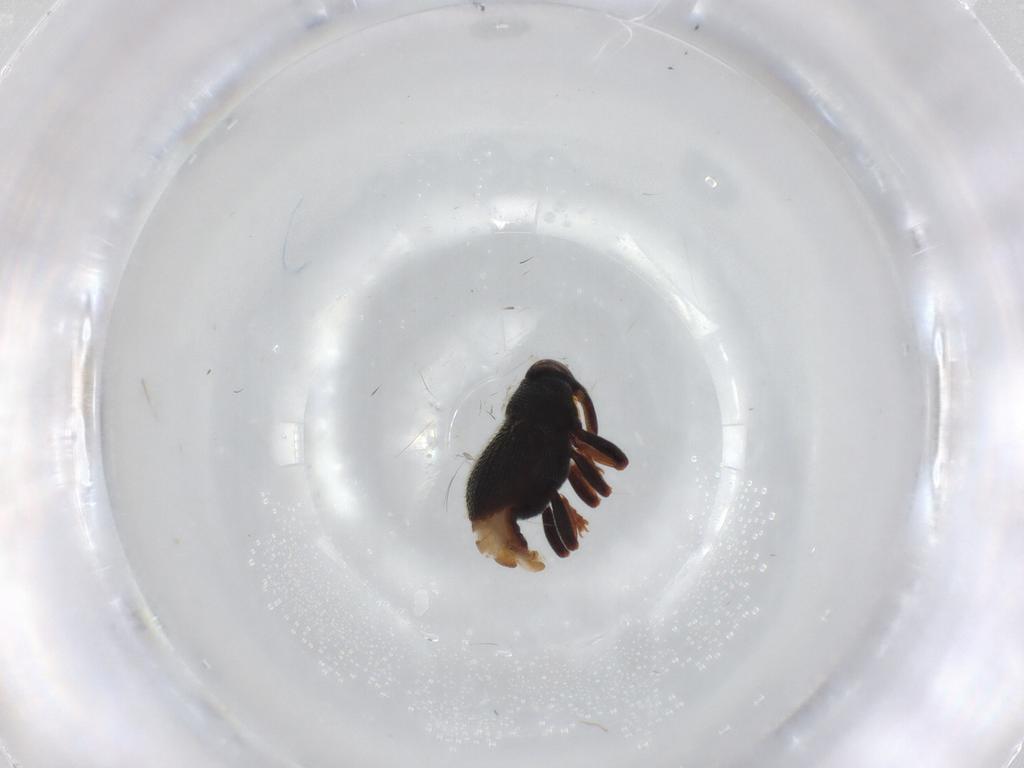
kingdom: Animalia
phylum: Arthropoda
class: Insecta
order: Coleoptera
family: Curculionidae
